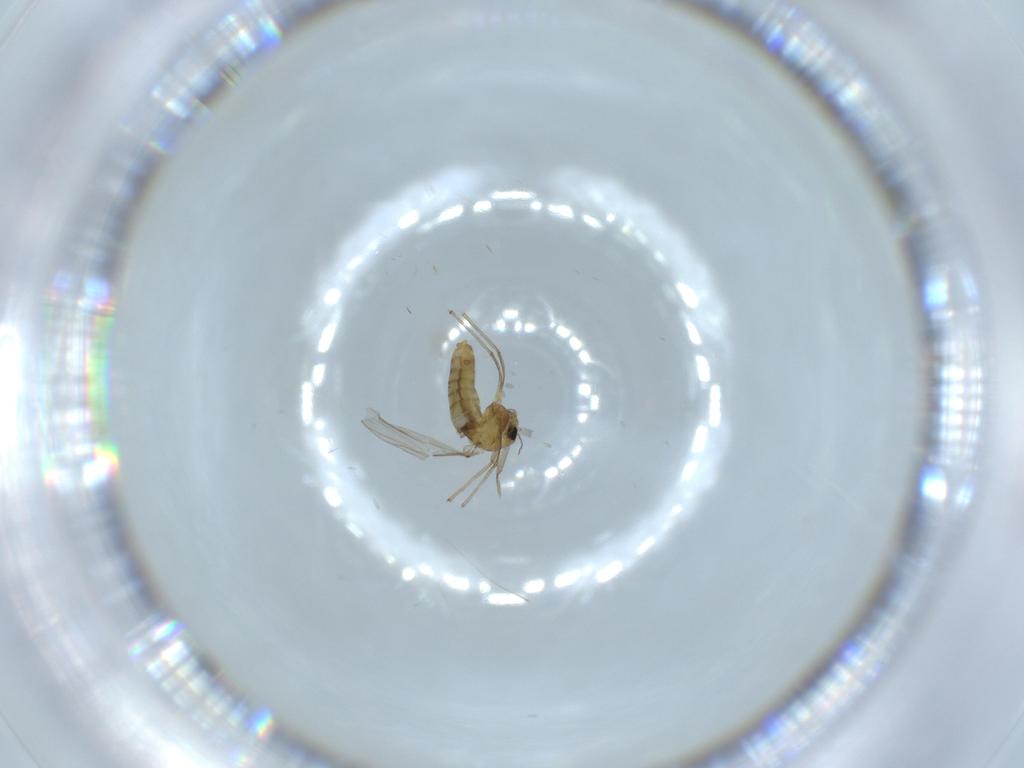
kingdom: Animalia
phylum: Arthropoda
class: Insecta
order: Diptera
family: Chironomidae
